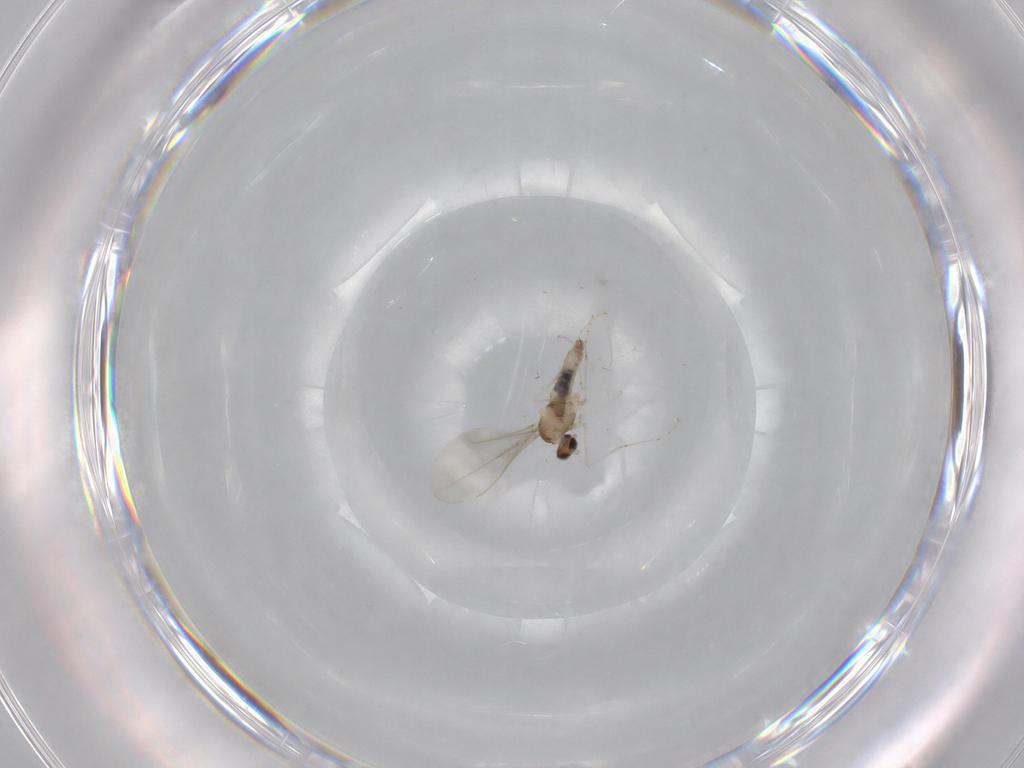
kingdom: Animalia
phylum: Arthropoda
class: Insecta
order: Diptera
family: Cecidomyiidae
